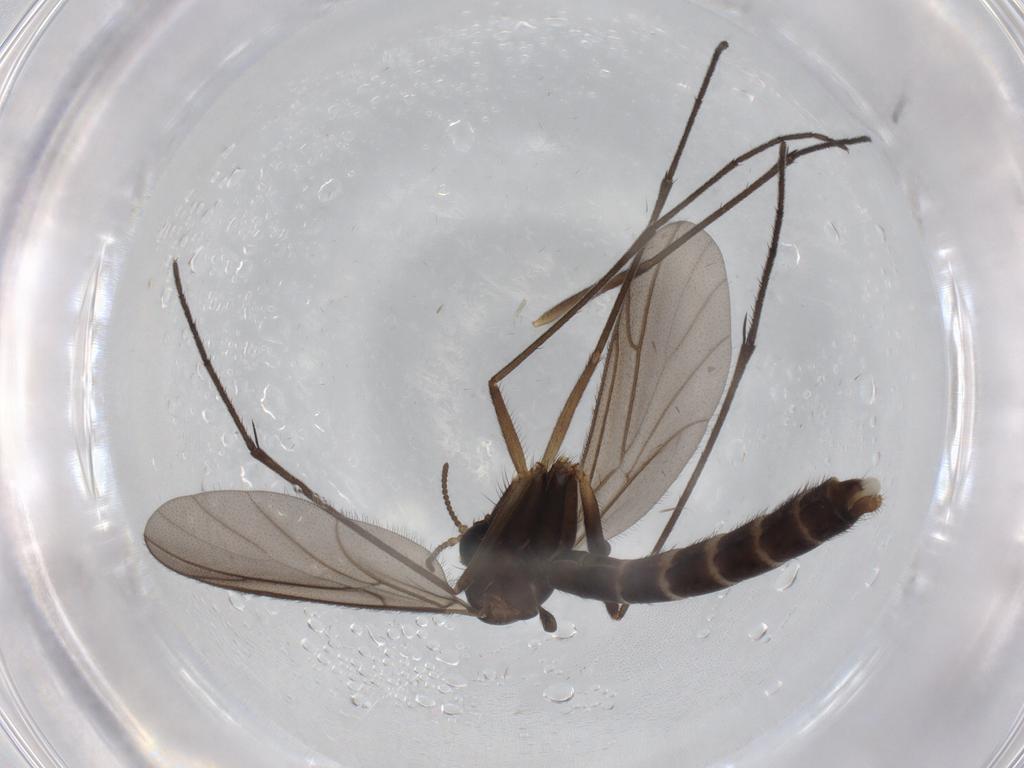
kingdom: Animalia
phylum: Arthropoda
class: Insecta
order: Diptera
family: Ditomyiidae
